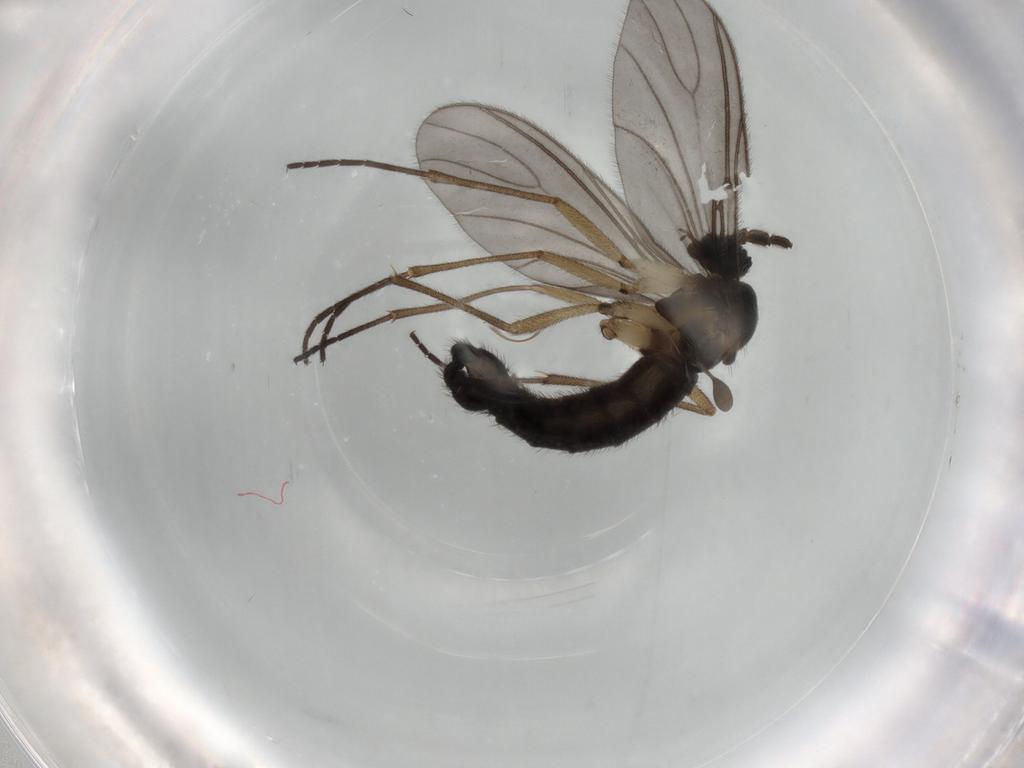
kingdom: Animalia
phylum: Arthropoda
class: Insecta
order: Diptera
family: Sciaridae
